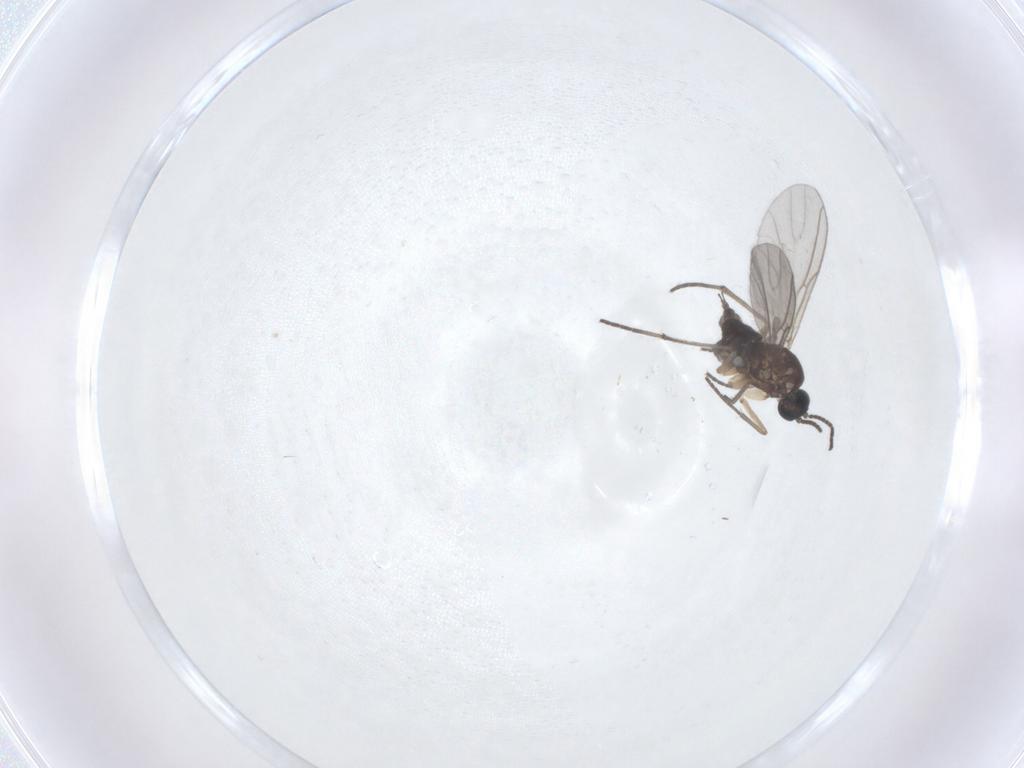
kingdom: Animalia
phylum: Arthropoda
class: Insecta
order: Diptera
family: Sciaridae
